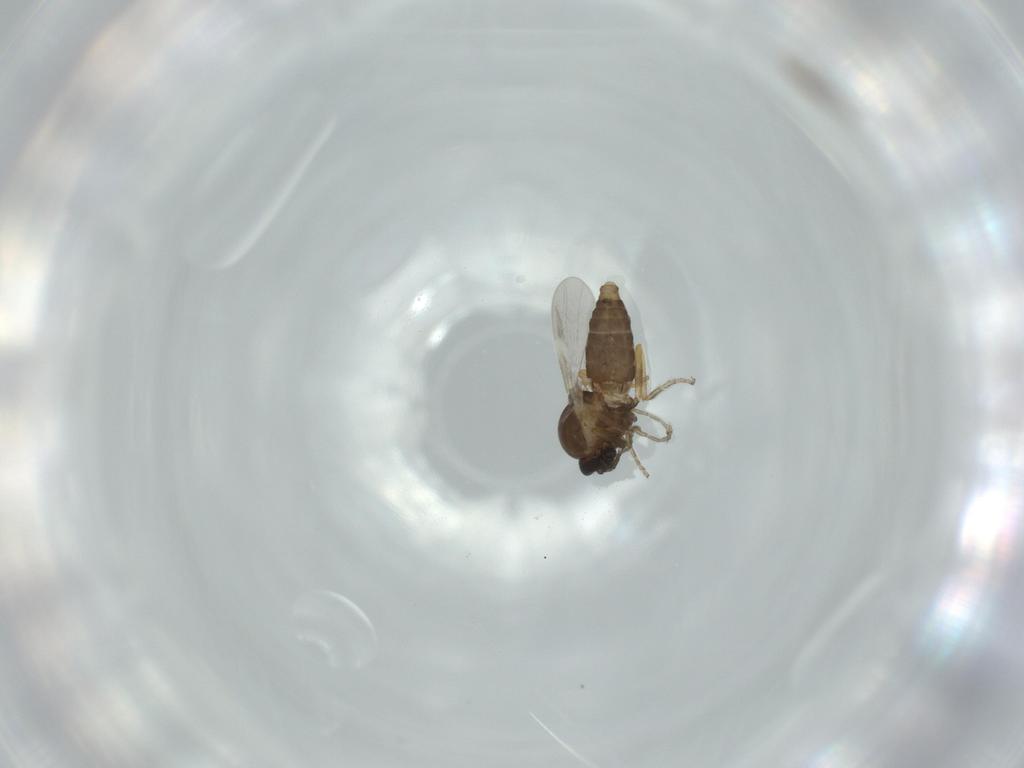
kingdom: Animalia
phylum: Arthropoda
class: Insecta
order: Diptera
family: Ceratopogonidae
